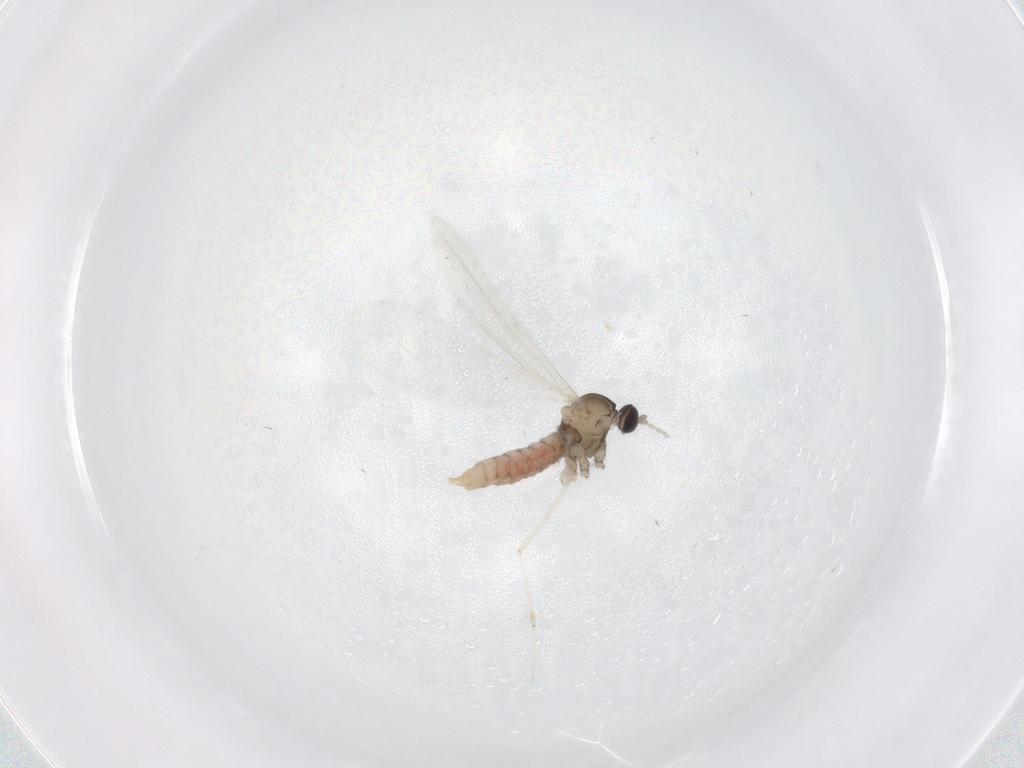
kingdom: Animalia
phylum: Arthropoda
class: Insecta
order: Diptera
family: Cecidomyiidae
